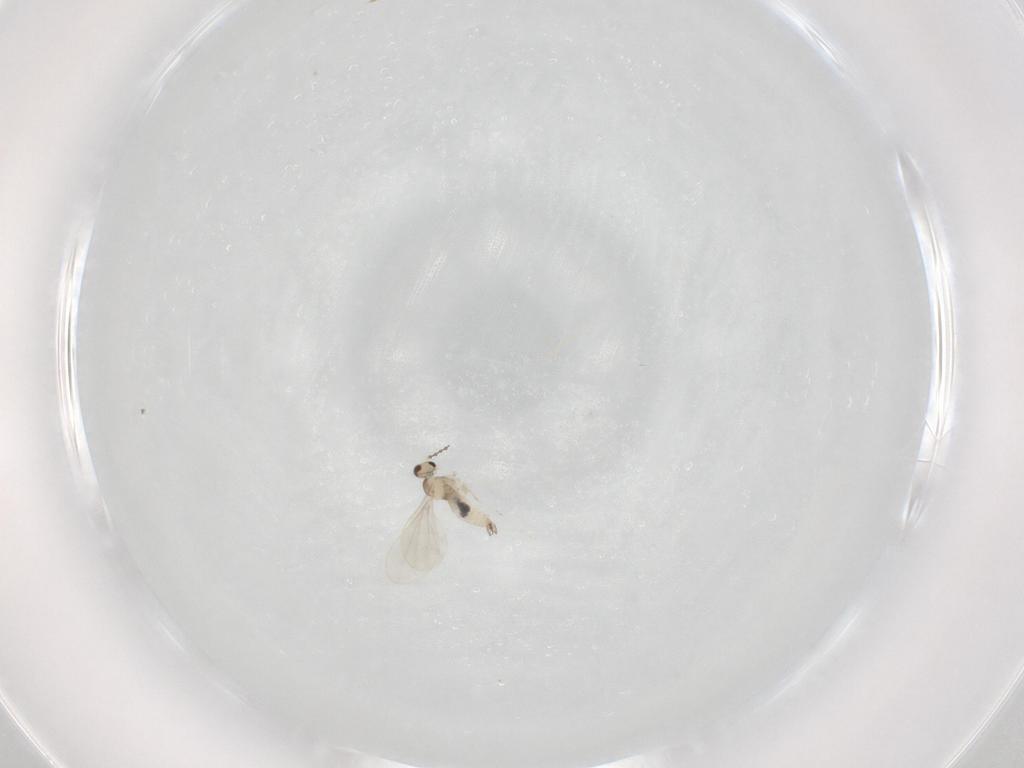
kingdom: Animalia
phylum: Arthropoda
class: Insecta
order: Diptera
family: Cecidomyiidae
